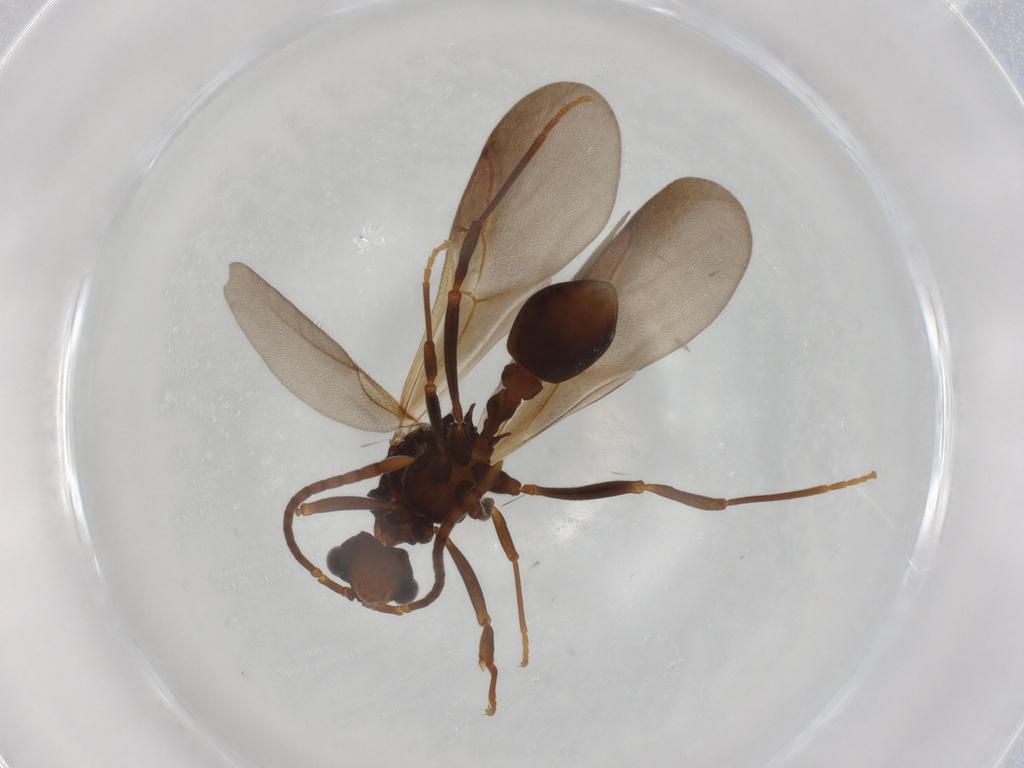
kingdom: Animalia
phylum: Arthropoda
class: Insecta
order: Hymenoptera
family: Formicidae
